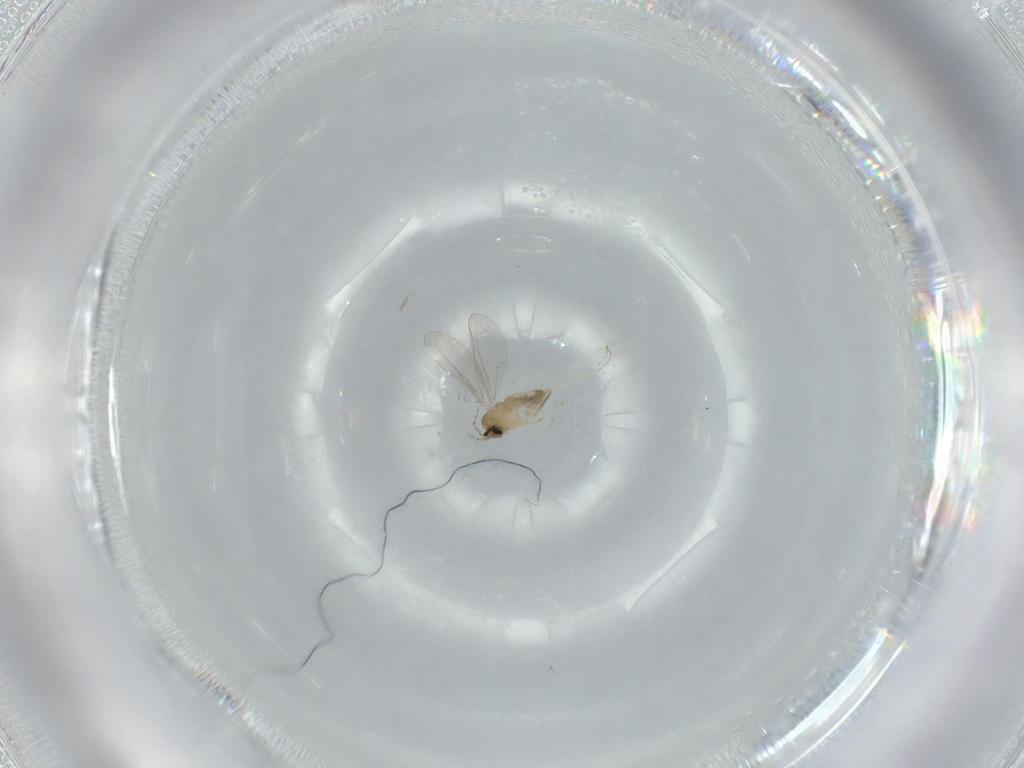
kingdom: Animalia
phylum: Arthropoda
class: Insecta
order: Diptera
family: Cecidomyiidae
